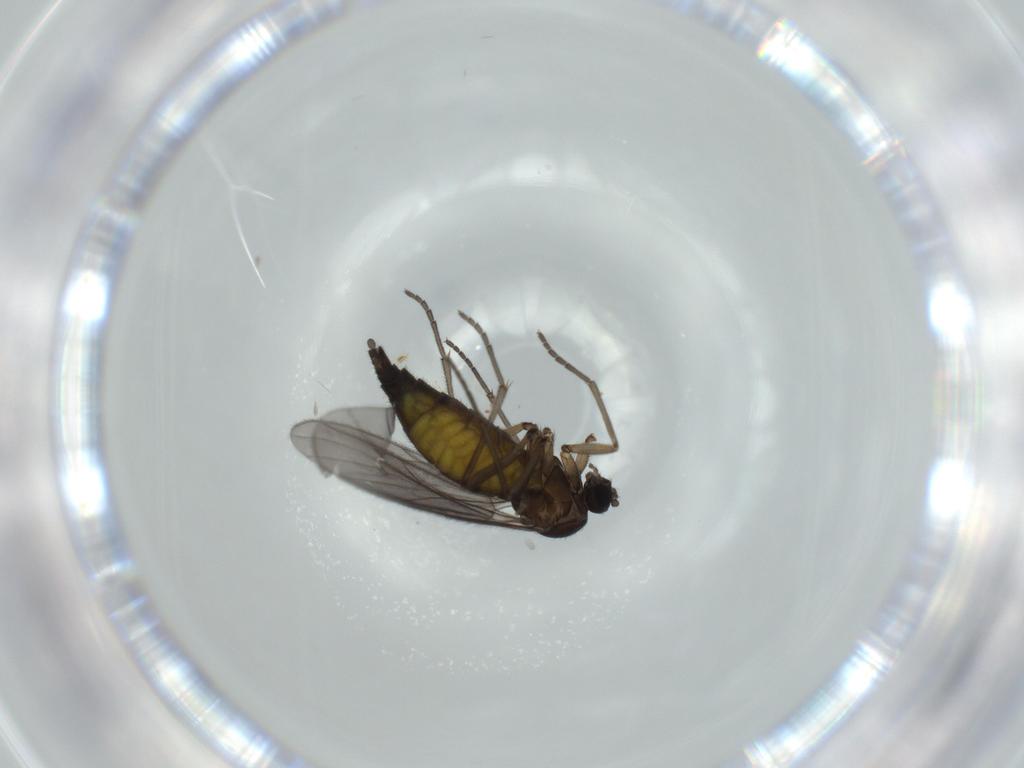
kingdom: Animalia
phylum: Arthropoda
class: Insecta
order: Diptera
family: Sciaridae
